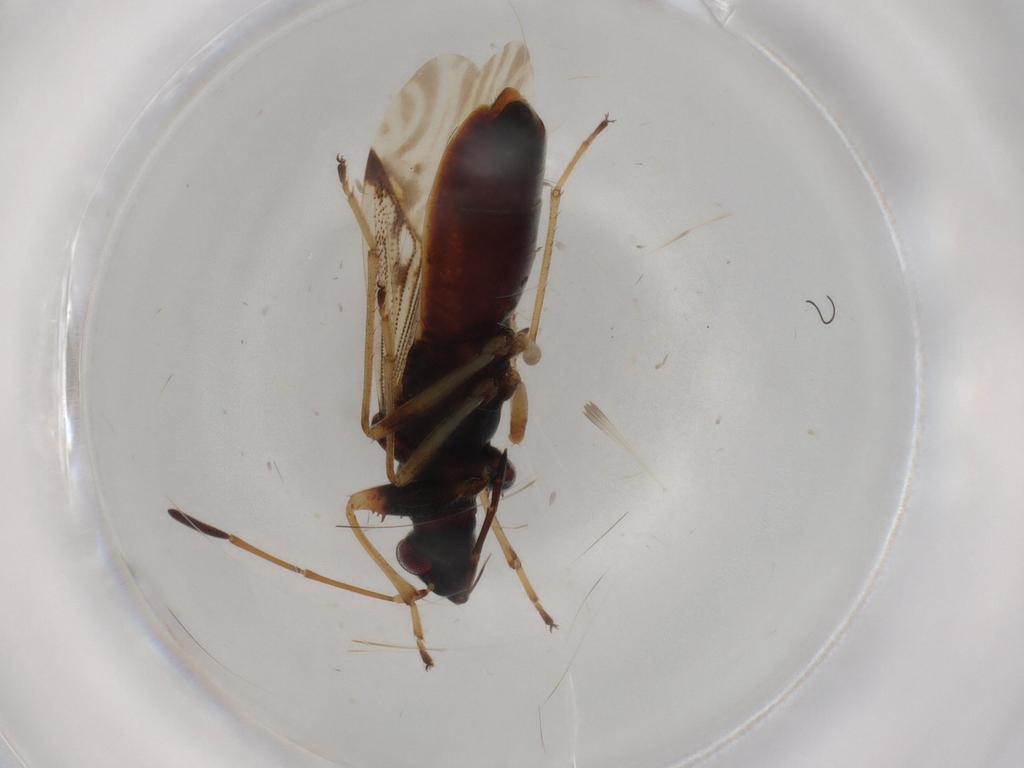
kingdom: Animalia
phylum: Arthropoda
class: Insecta
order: Hemiptera
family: Rhyparochromidae
